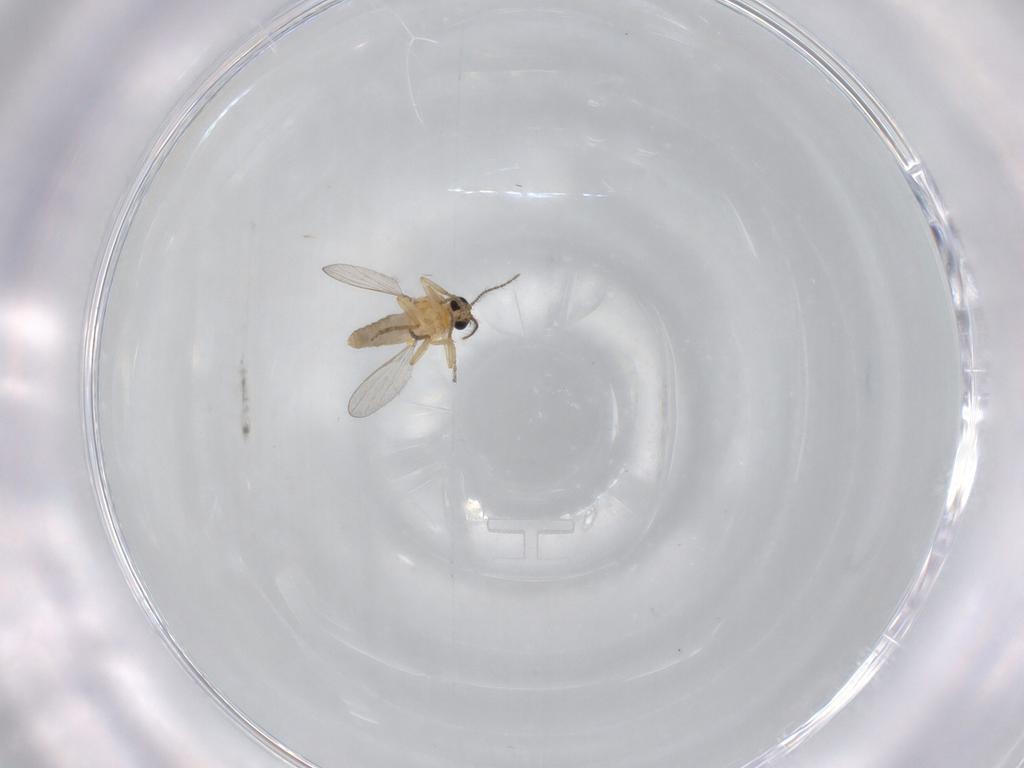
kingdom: Animalia
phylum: Arthropoda
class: Insecta
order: Diptera
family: Ceratopogonidae
